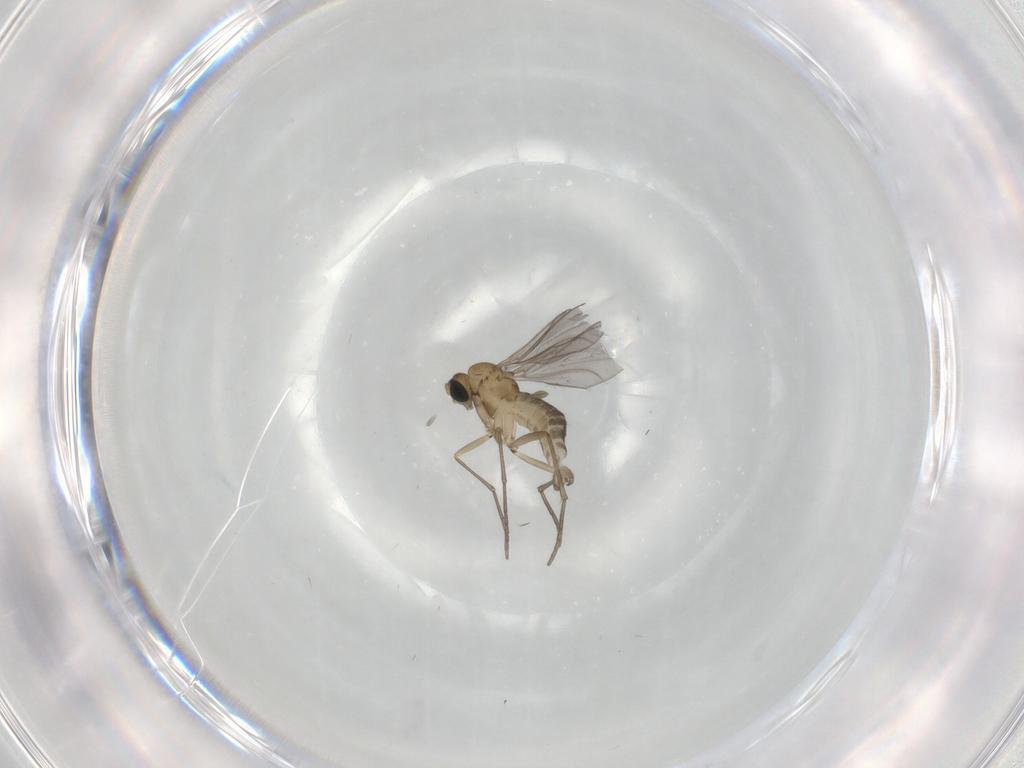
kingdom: Animalia
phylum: Arthropoda
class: Insecta
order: Diptera
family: Sciaridae
